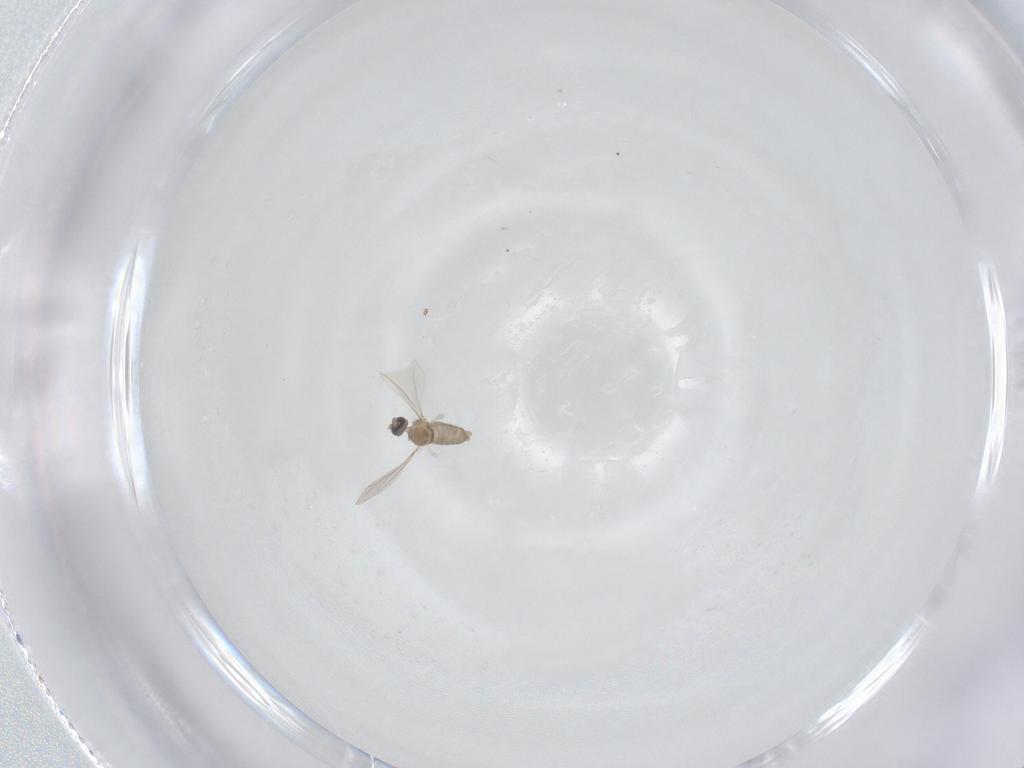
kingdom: Animalia
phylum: Arthropoda
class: Insecta
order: Diptera
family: Cecidomyiidae
